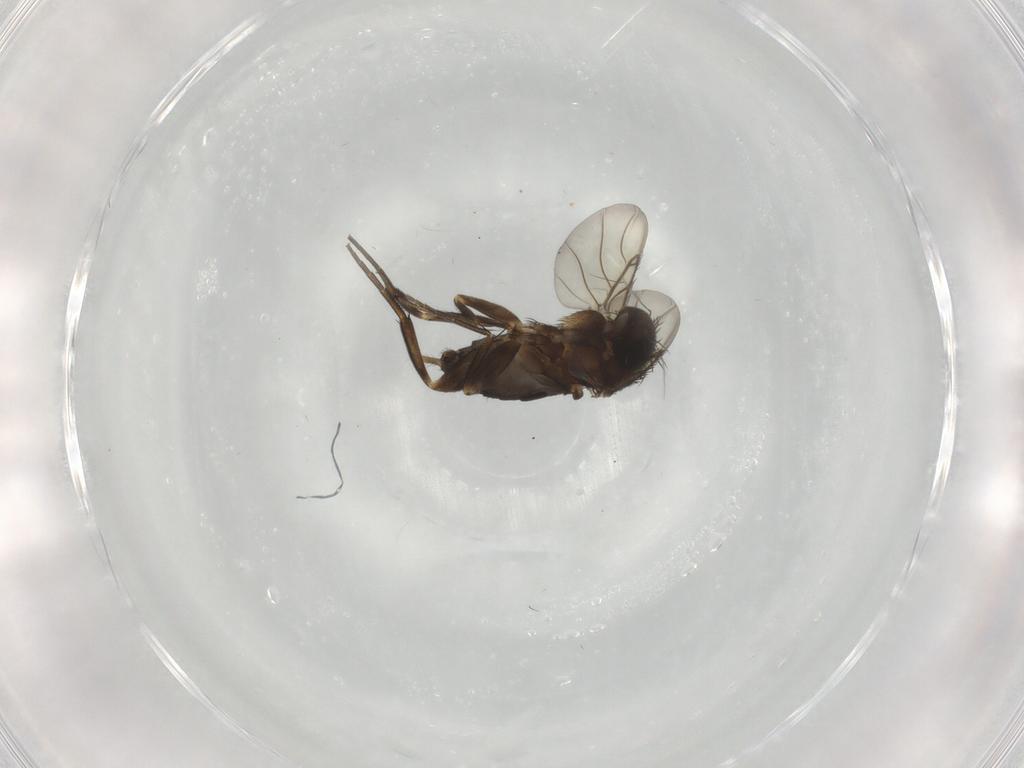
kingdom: Animalia
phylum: Arthropoda
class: Insecta
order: Diptera
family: Phoridae
